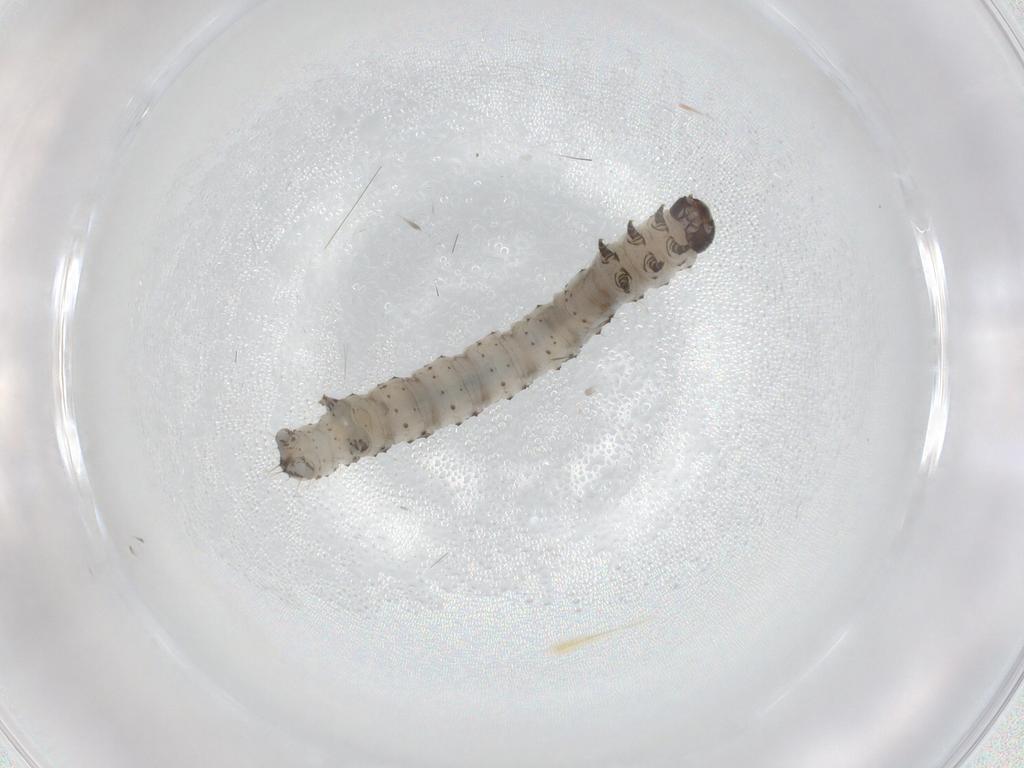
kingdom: Animalia
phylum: Arthropoda
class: Insecta
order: Lepidoptera
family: Geometridae
